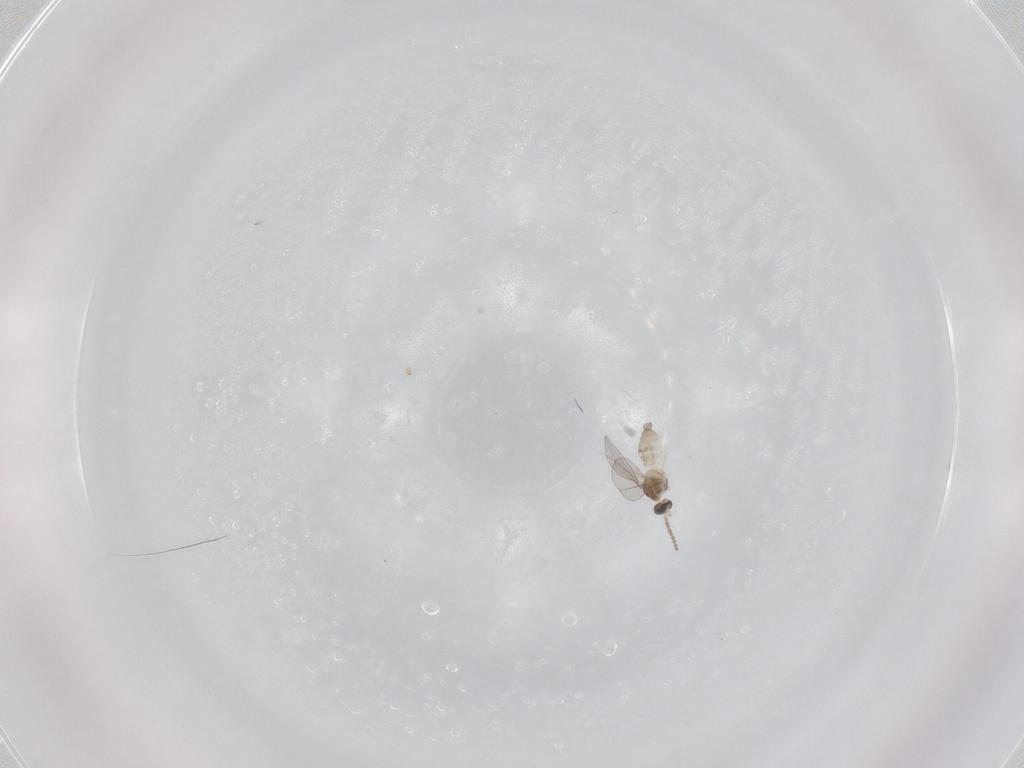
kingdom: Animalia
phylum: Arthropoda
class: Insecta
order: Diptera
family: Cecidomyiidae
